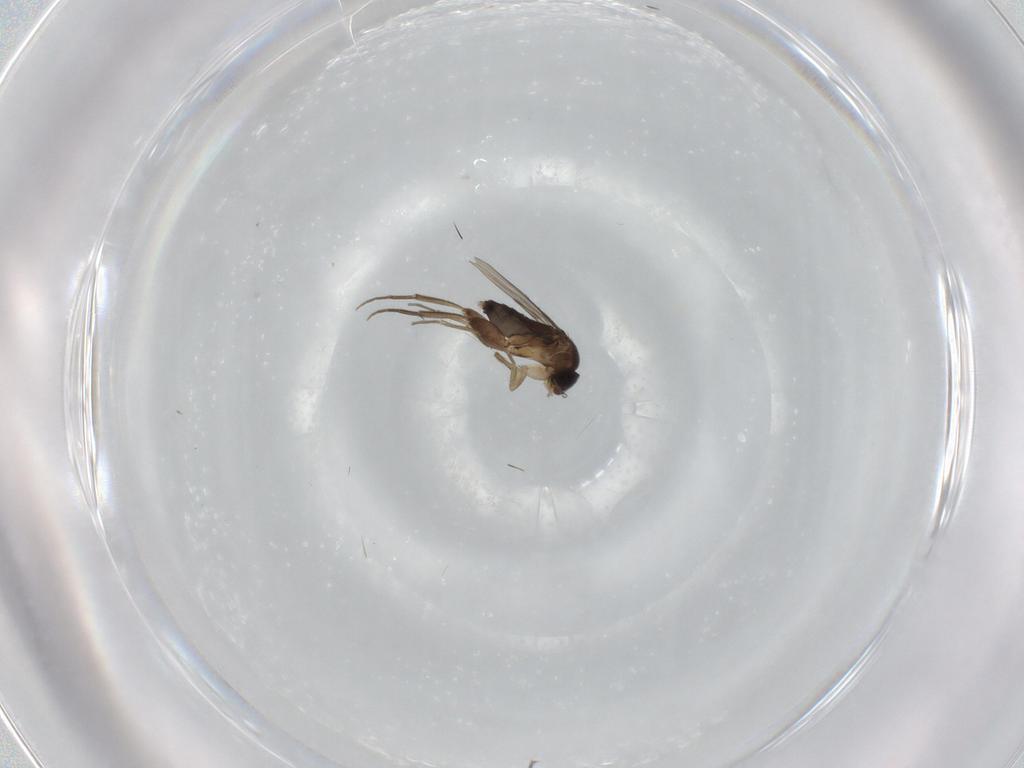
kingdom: Animalia
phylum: Arthropoda
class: Insecta
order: Diptera
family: Phoridae
